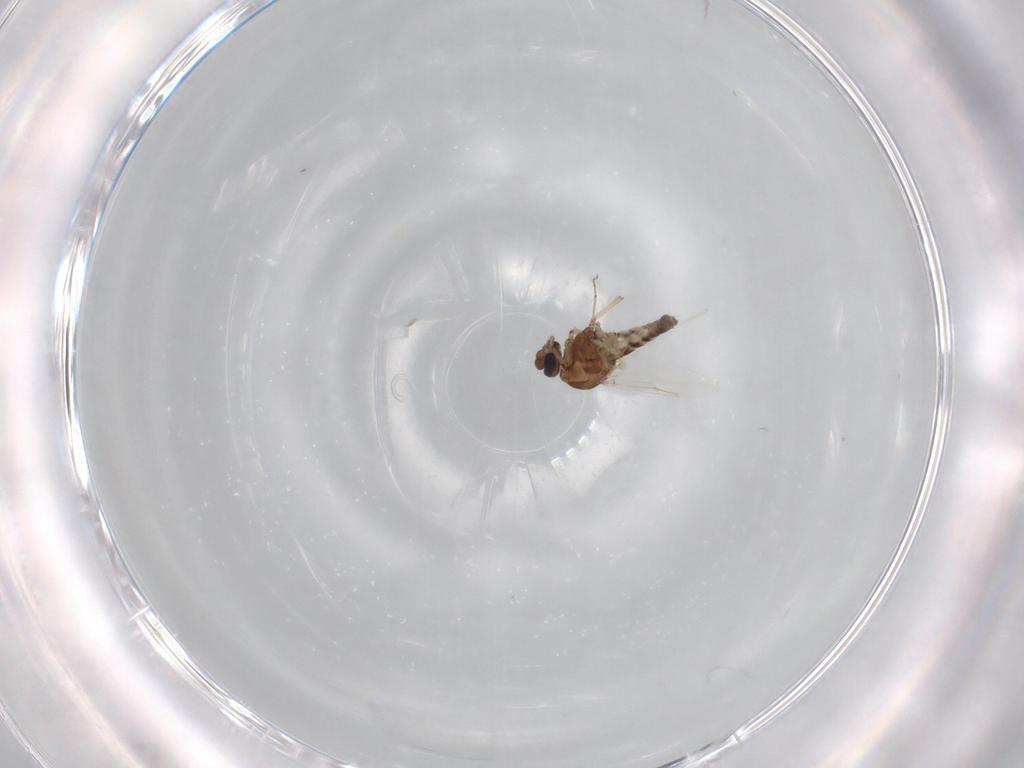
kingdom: Animalia
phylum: Arthropoda
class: Insecta
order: Diptera
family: Ceratopogonidae
